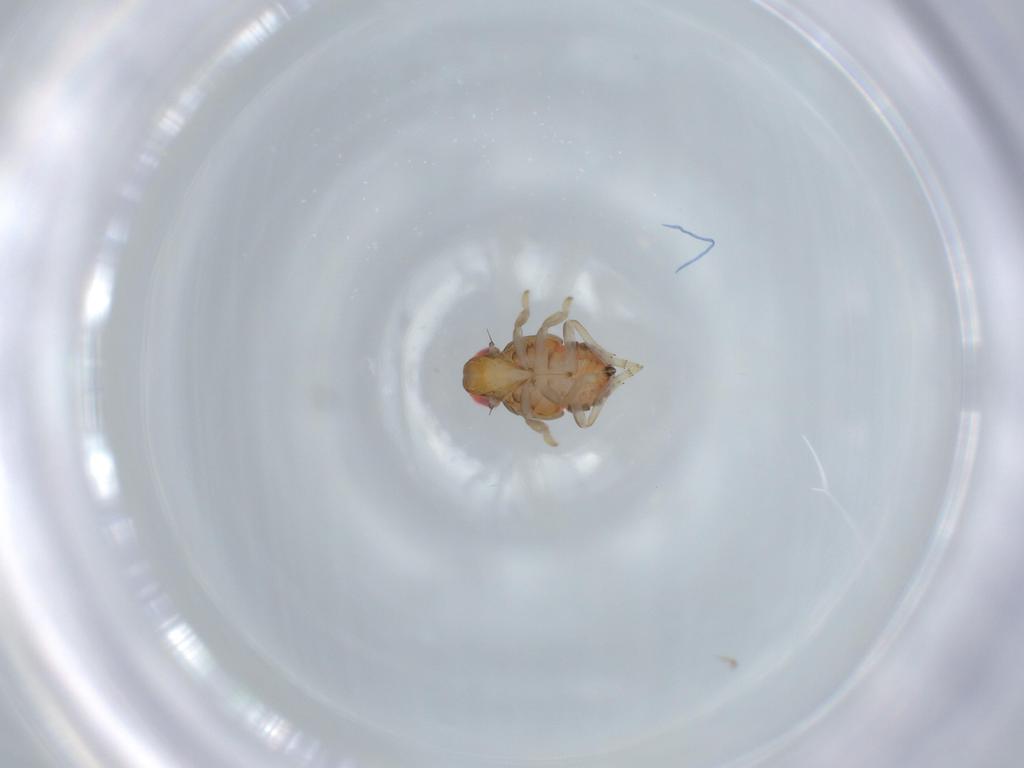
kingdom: Animalia
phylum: Arthropoda
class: Insecta
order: Hemiptera
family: Issidae
